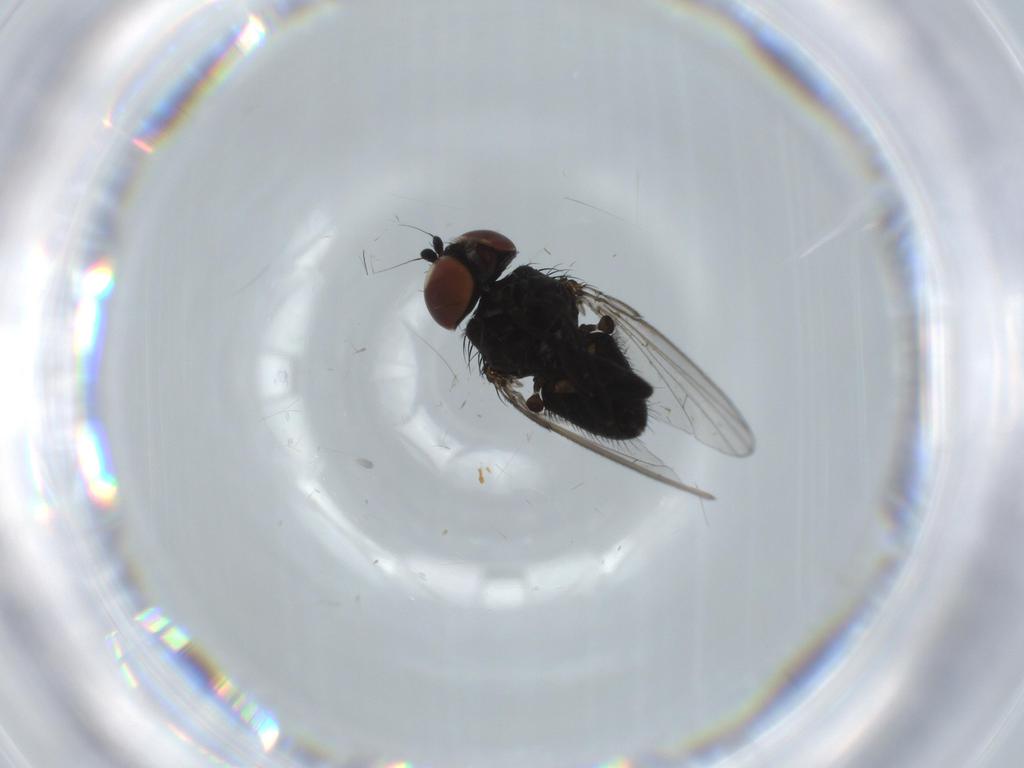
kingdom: Animalia
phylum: Arthropoda
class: Insecta
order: Diptera
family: Milichiidae
